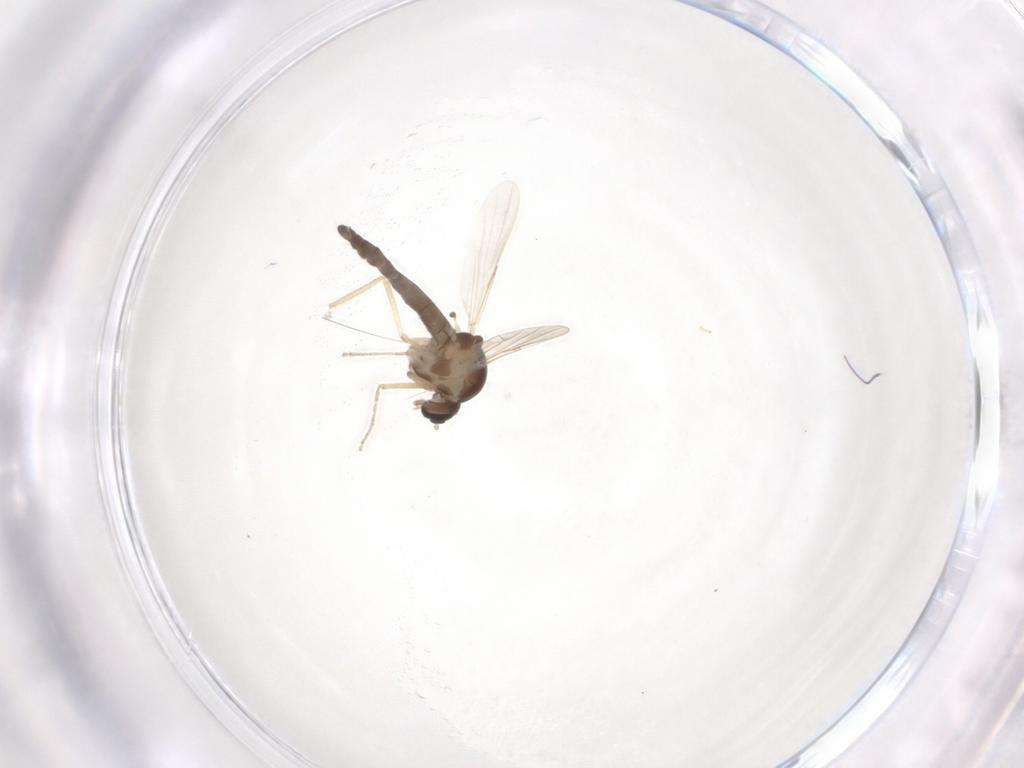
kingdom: Animalia
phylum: Arthropoda
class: Insecta
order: Diptera
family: Ceratopogonidae
